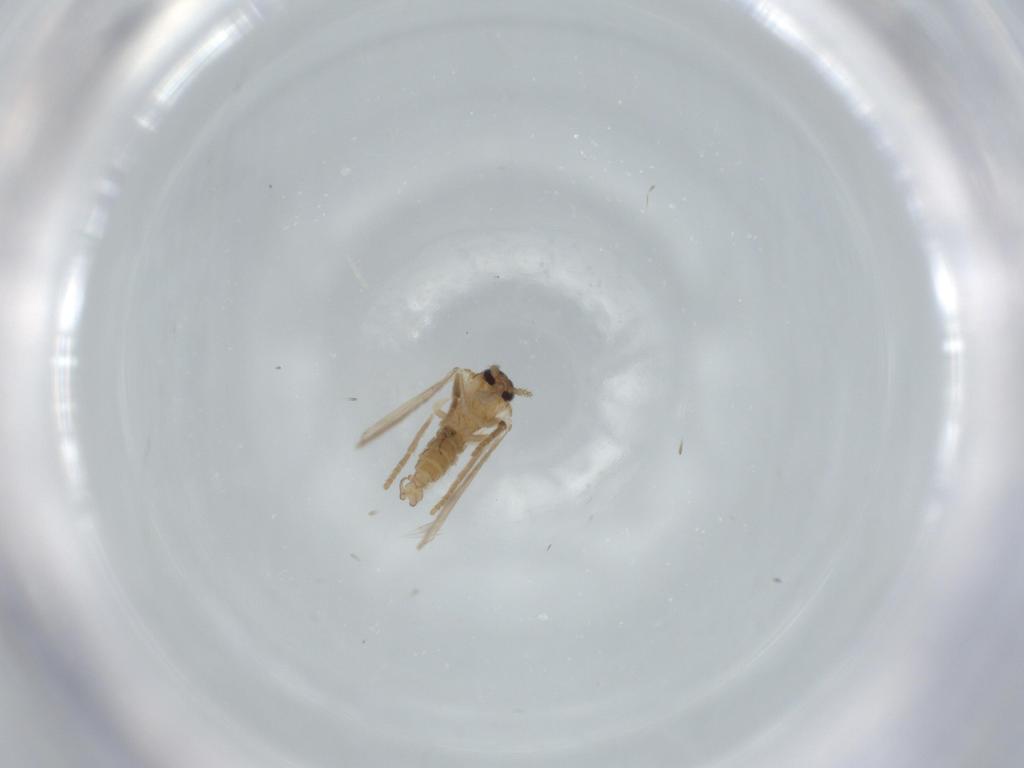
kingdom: Animalia
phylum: Arthropoda
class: Insecta
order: Diptera
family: Psychodidae
